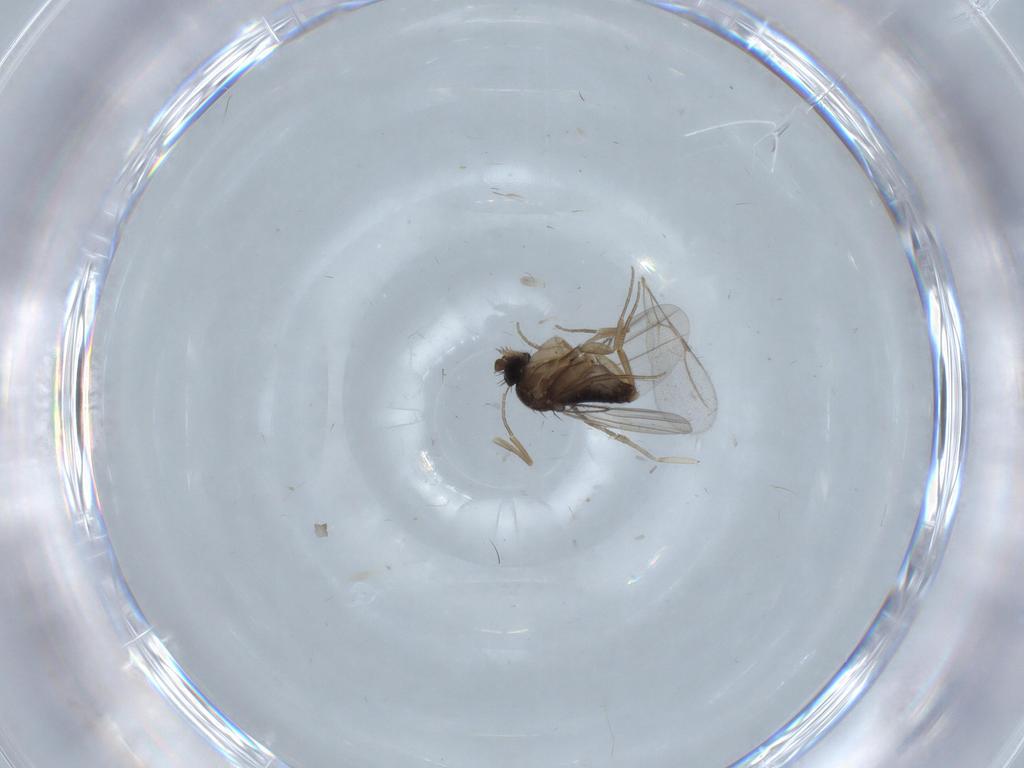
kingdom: Animalia
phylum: Arthropoda
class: Insecta
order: Diptera
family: Phoridae
